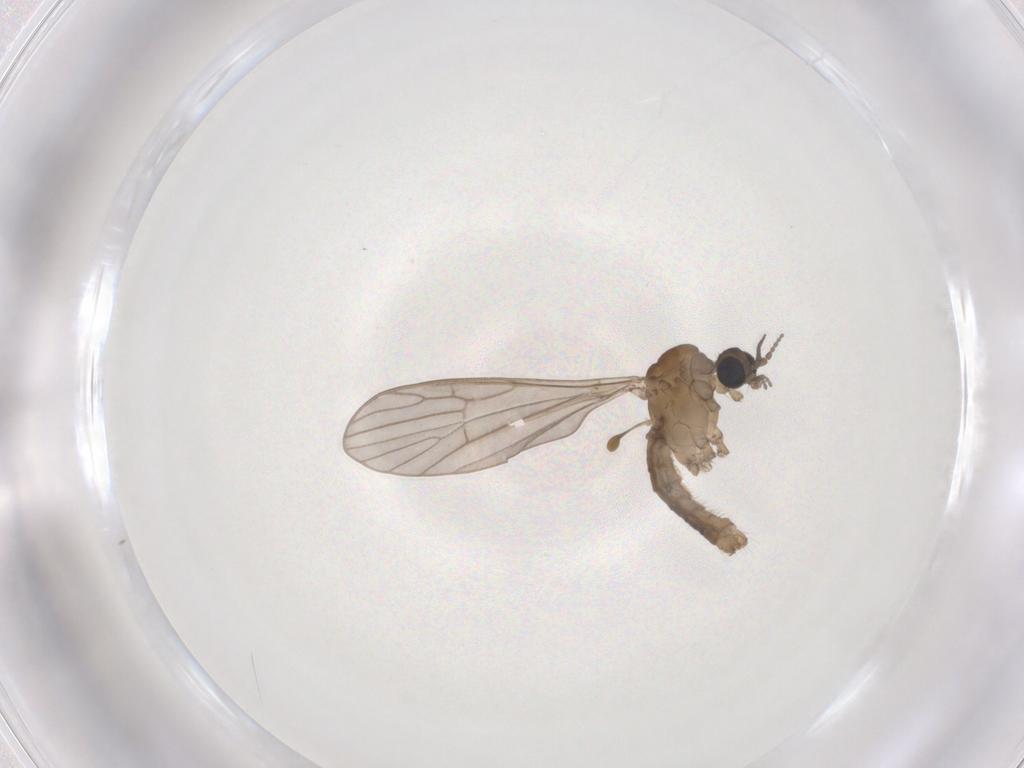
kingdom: Animalia
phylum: Arthropoda
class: Insecta
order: Diptera
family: Limoniidae
